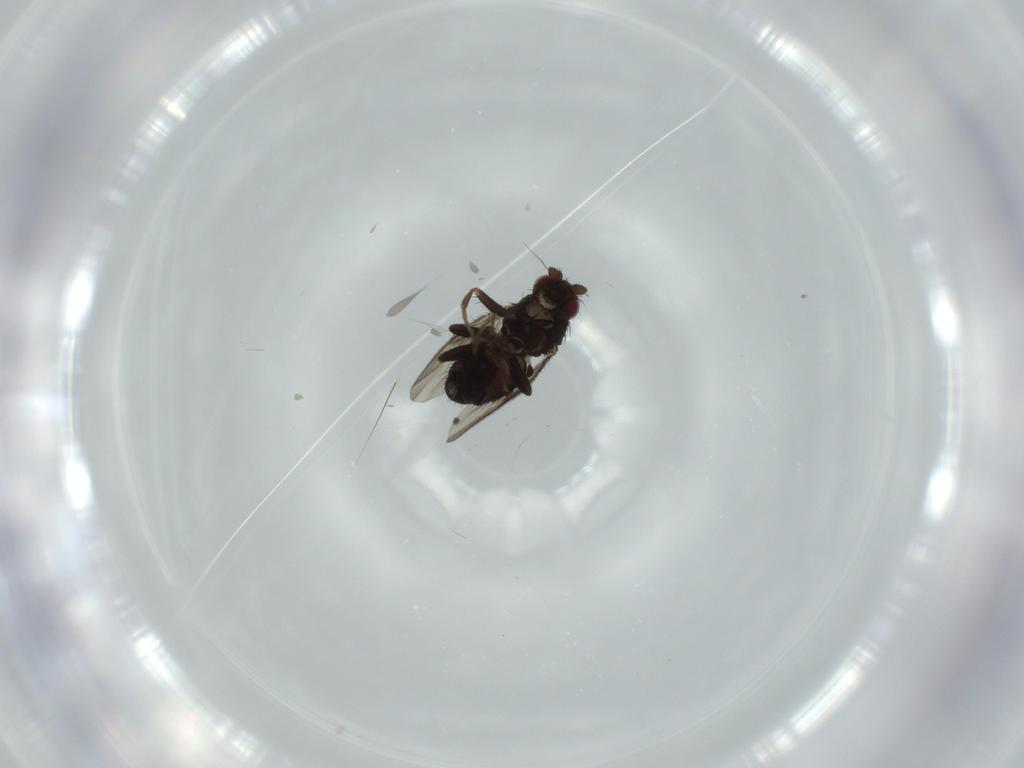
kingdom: Animalia
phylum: Arthropoda
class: Insecta
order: Diptera
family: Sphaeroceridae
